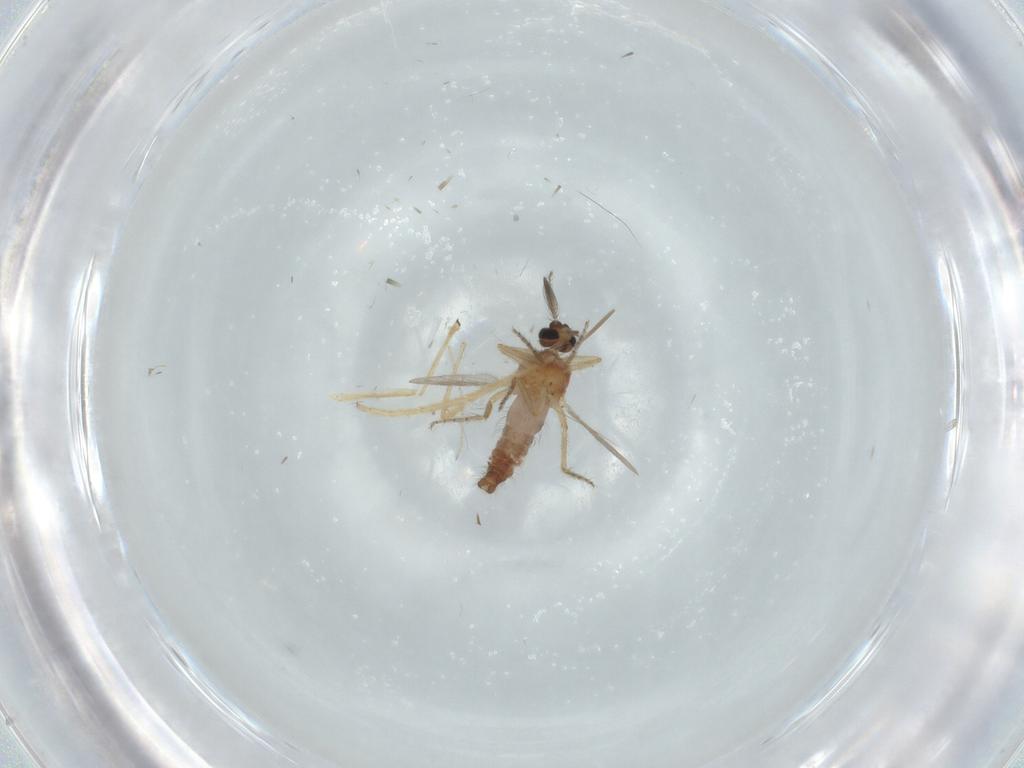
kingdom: Animalia
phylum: Arthropoda
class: Insecta
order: Diptera
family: Ceratopogonidae
